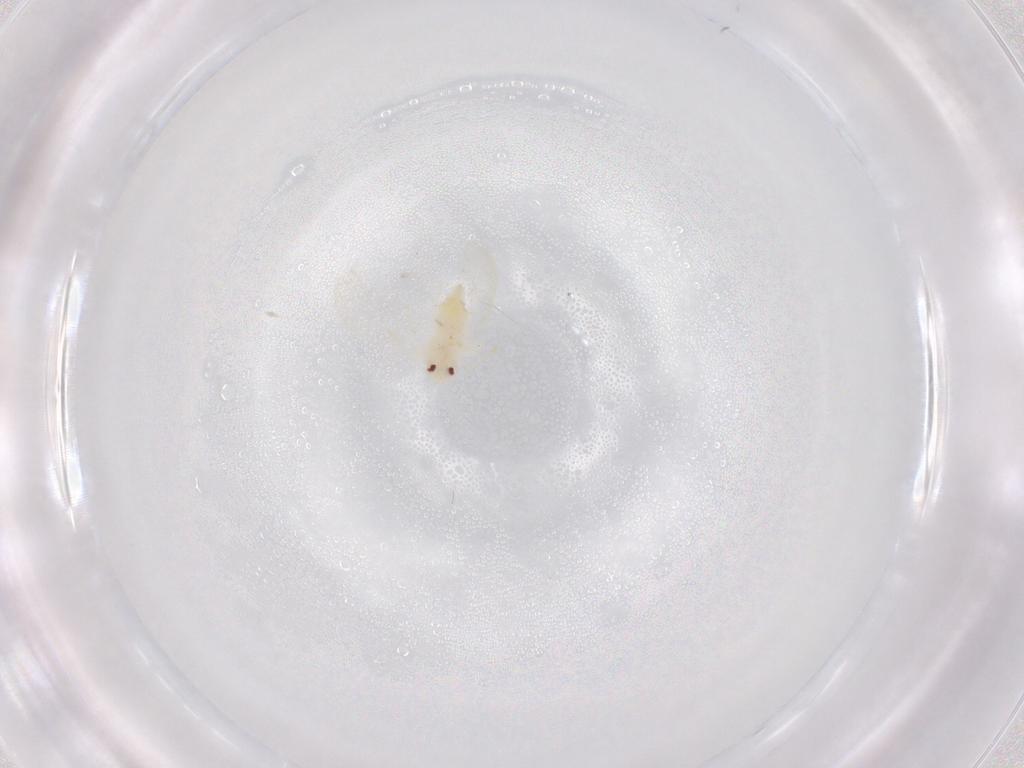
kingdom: Animalia
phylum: Arthropoda
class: Insecta
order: Hemiptera
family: Aleyrodidae
